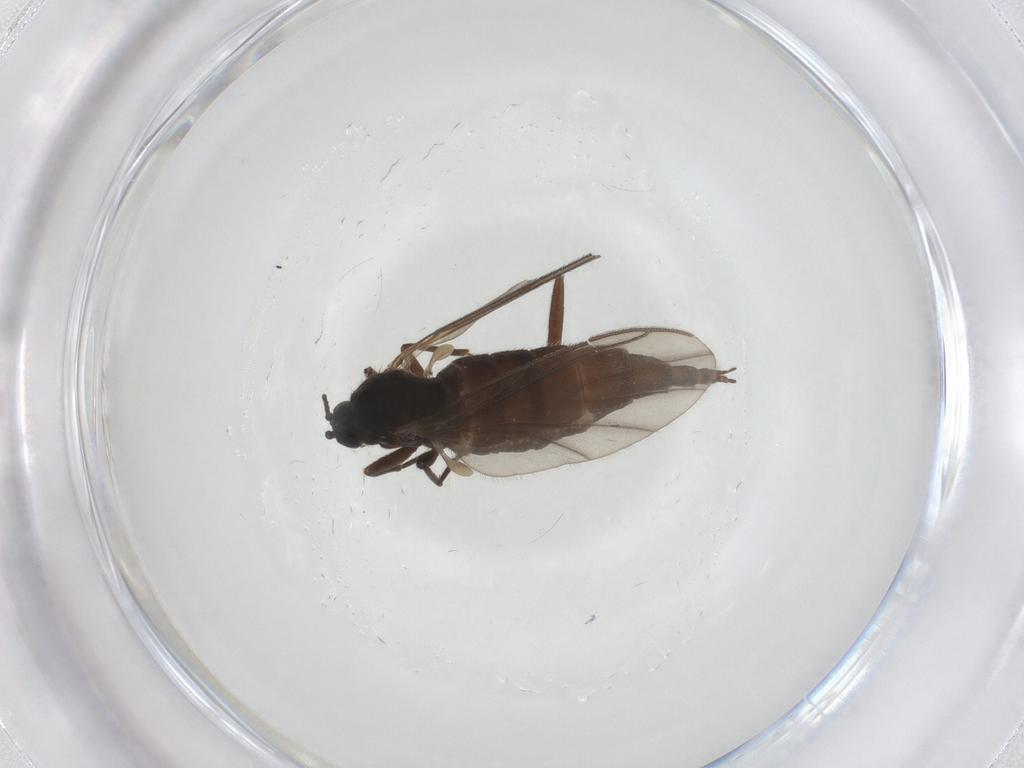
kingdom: Animalia
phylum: Arthropoda
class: Insecta
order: Diptera
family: Sciaridae
